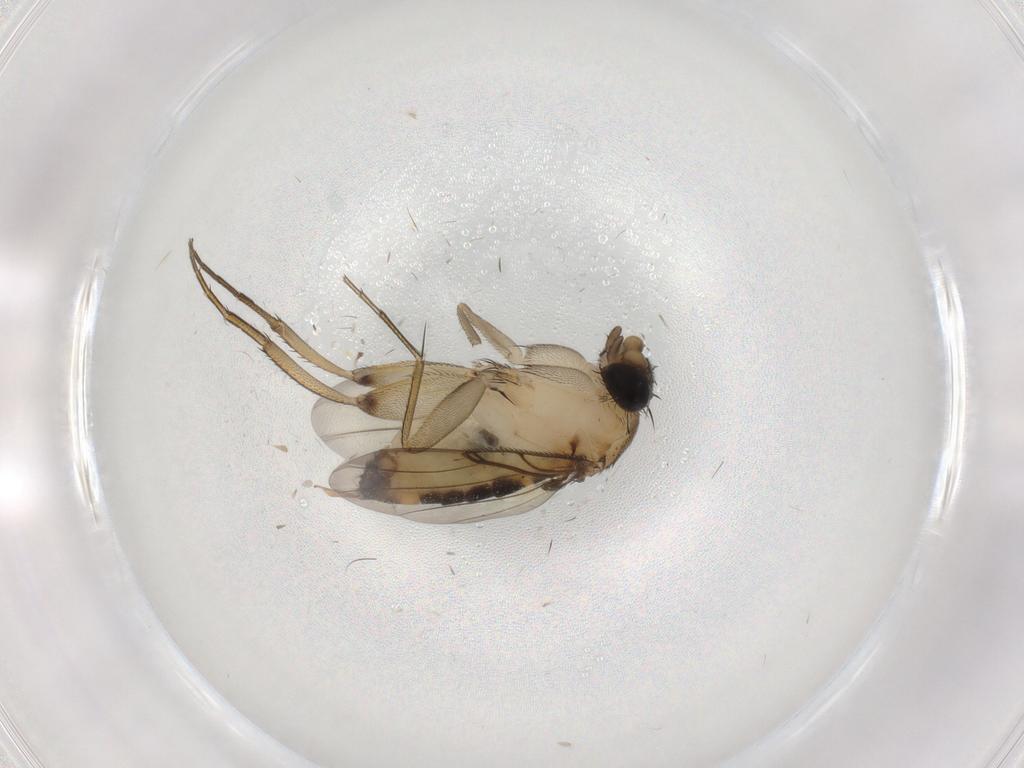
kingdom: Animalia
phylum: Arthropoda
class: Insecta
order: Diptera
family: Phoridae
